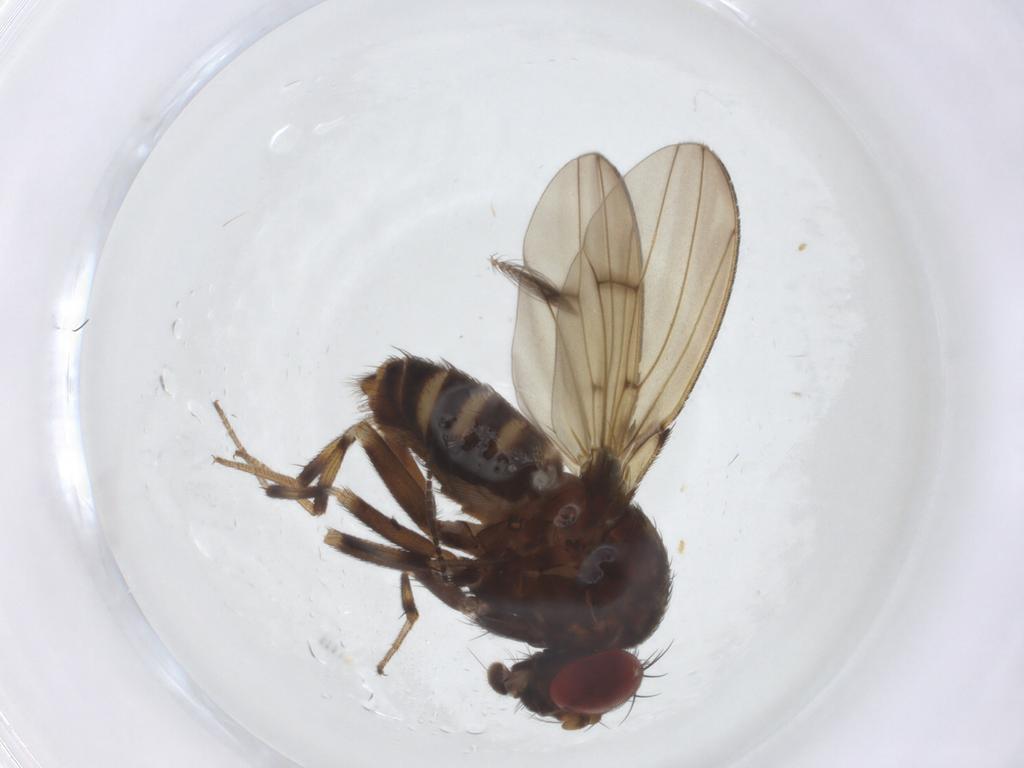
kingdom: Animalia
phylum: Arthropoda
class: Insecta
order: Diptera
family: Drosophilidae
